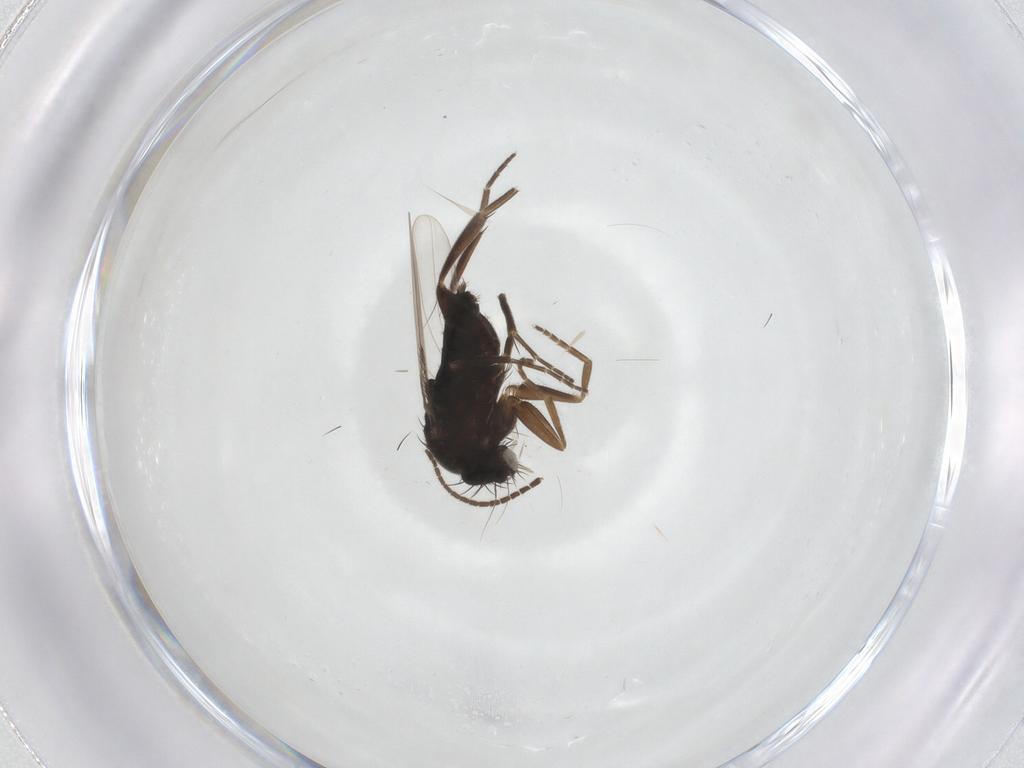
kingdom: Animalia
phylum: Arthropoda
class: Insecta
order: Diptera
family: Phoridae
